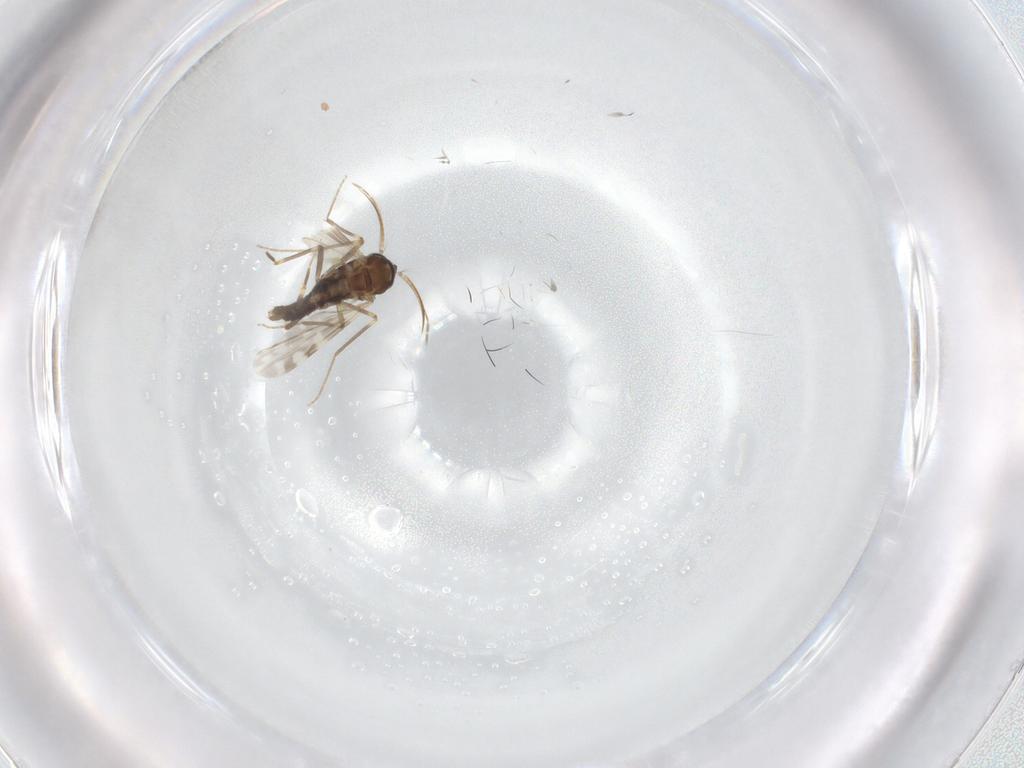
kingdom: Animalia
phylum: Arthropoda
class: Insecta
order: Diptera
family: Ceratopogonidae
